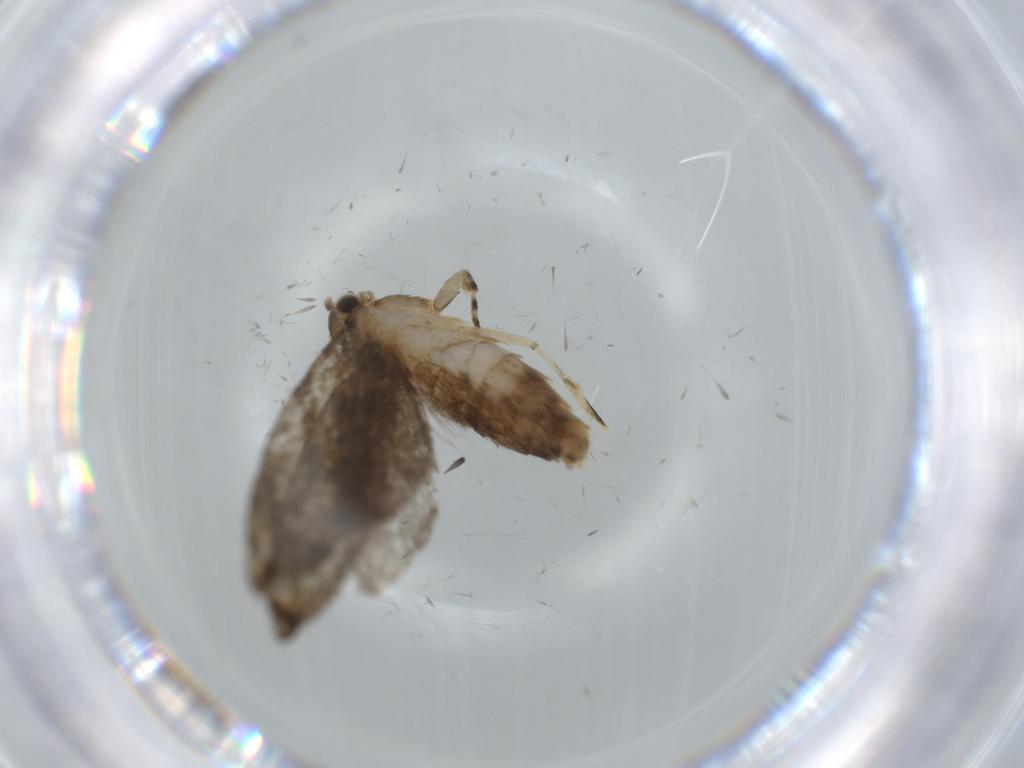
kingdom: Animalia
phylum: Arthropoda
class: Insecta
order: Lepidoptera
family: Tineidae
